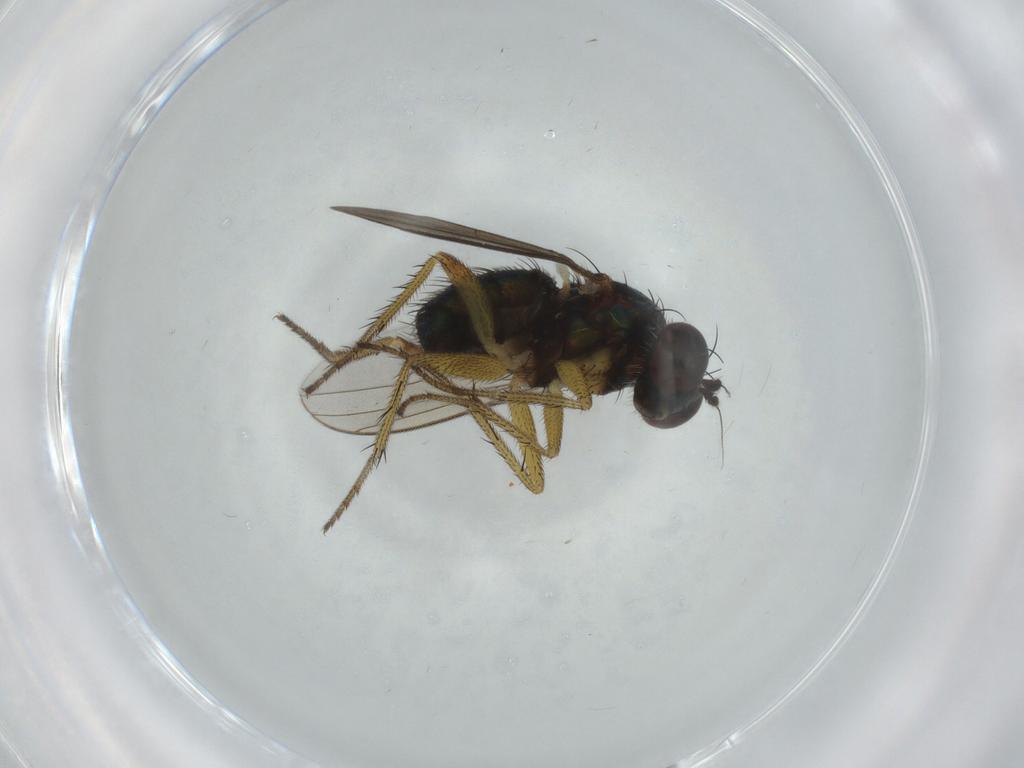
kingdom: Animalia
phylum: Arthropoda
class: Insecta
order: Diptera
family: Dolichopodidae
